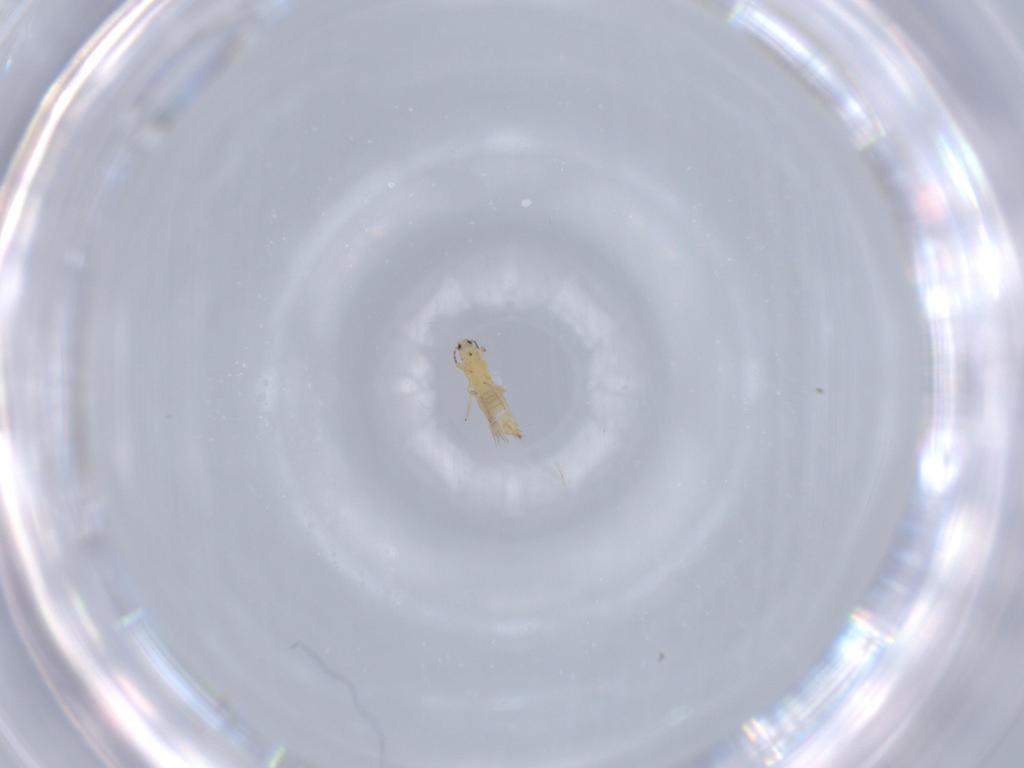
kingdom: Animalia
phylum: Arthropoda
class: Insecta
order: Thysanoptera
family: Thripidae
